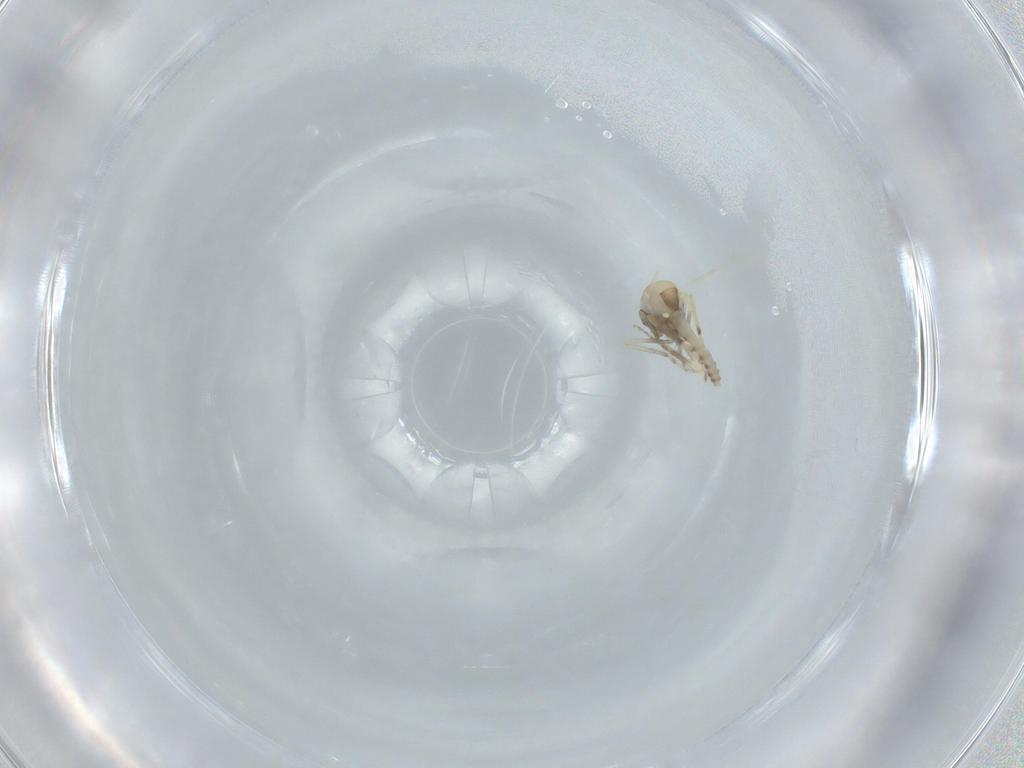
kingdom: Animalia
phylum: Arthropoda
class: Insecta
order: Diptera
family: Ceratopogonidae
